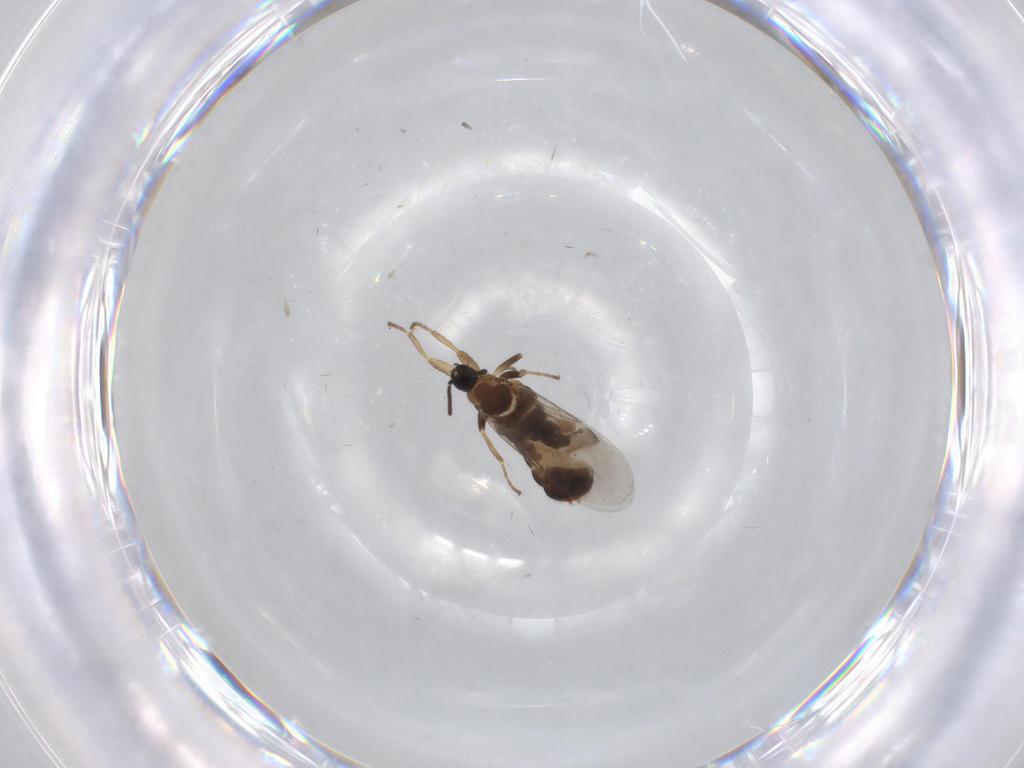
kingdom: Animalia
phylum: Arthropoda
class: Insecta
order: Diptera
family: Scatopsidae
